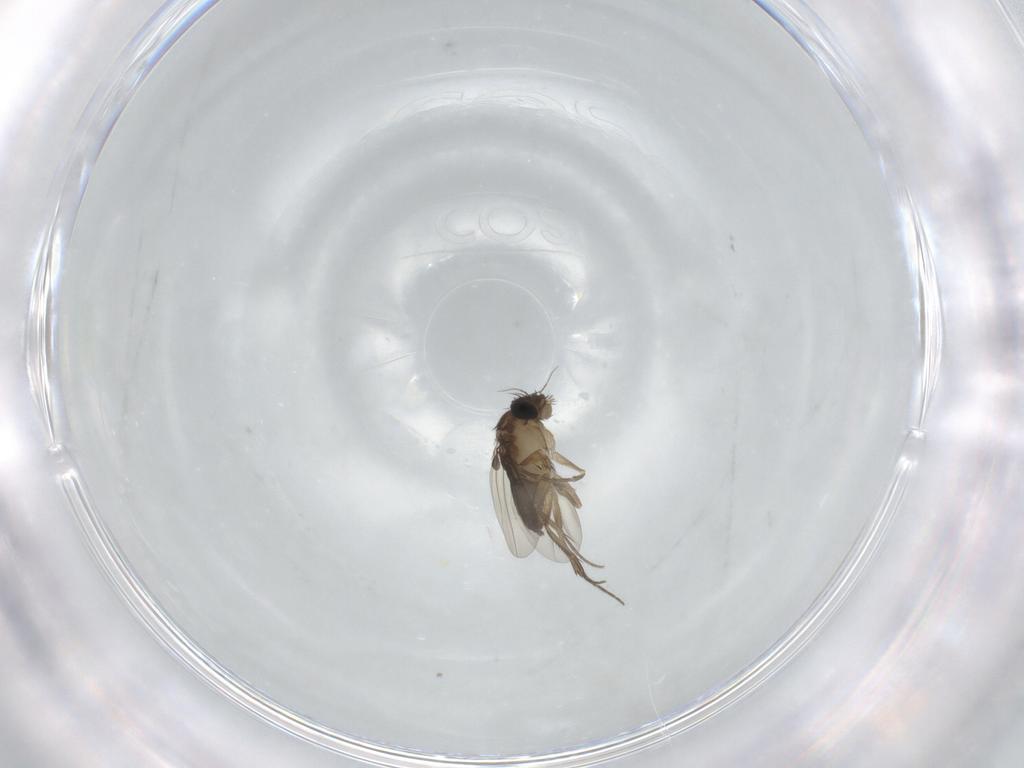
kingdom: Animalia
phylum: Arthropoda
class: Insecta
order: Diptera
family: Phoridae
